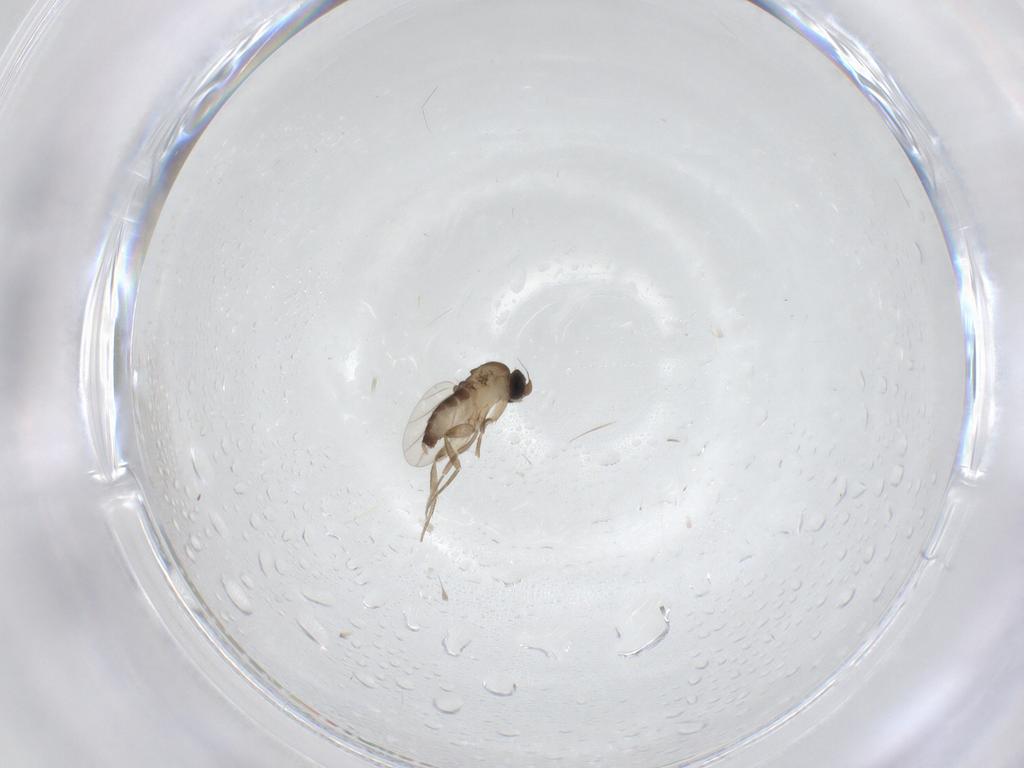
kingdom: Animalia
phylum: Arthropoda
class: Insecta
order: Diptera
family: Phoridae
